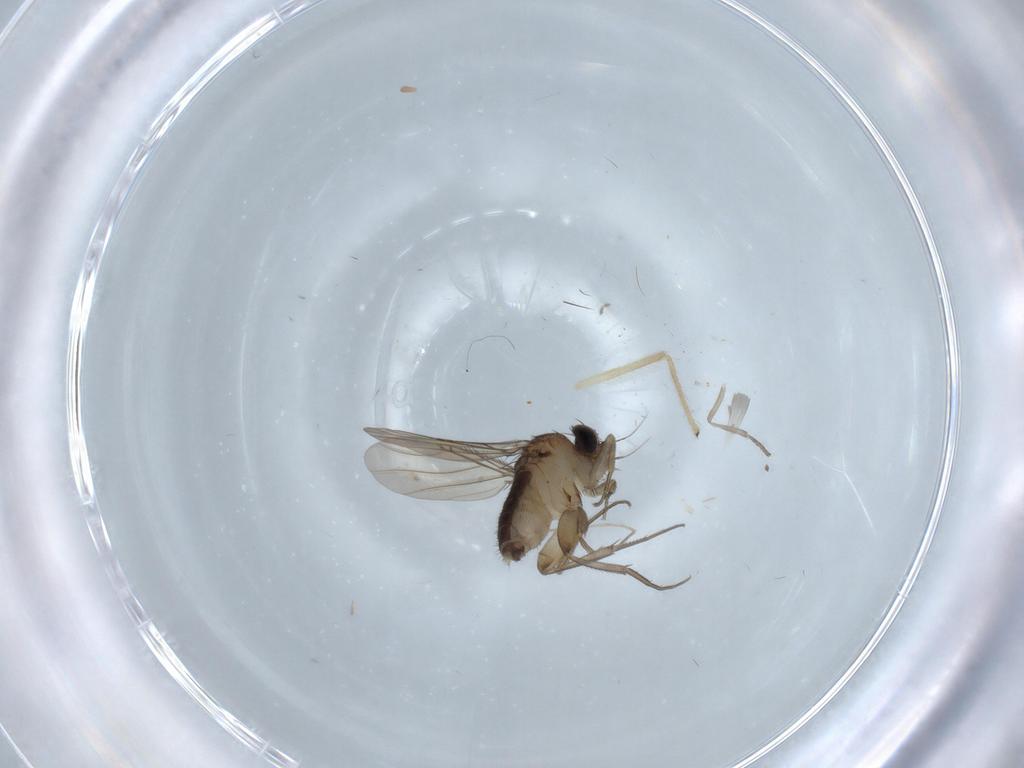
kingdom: Animalia
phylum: Arthropoda
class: Insecta
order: Diptera
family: Phoridae
